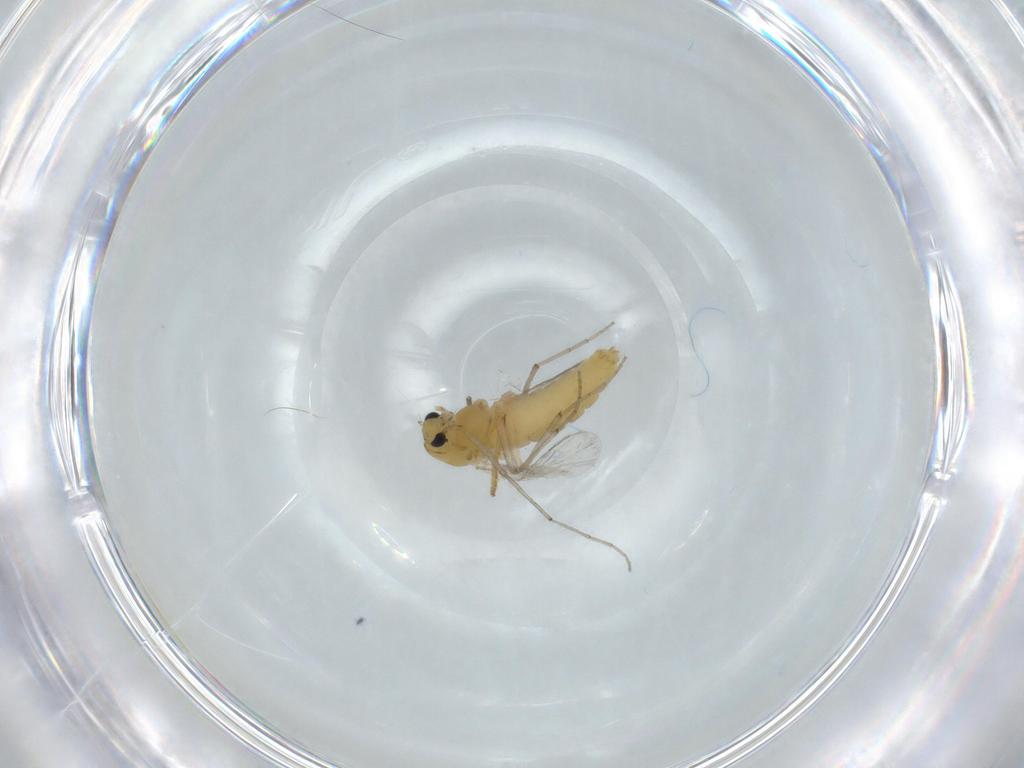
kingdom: Animalia
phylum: Arthropoda
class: Insecta
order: Diptera
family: Chironomidae
